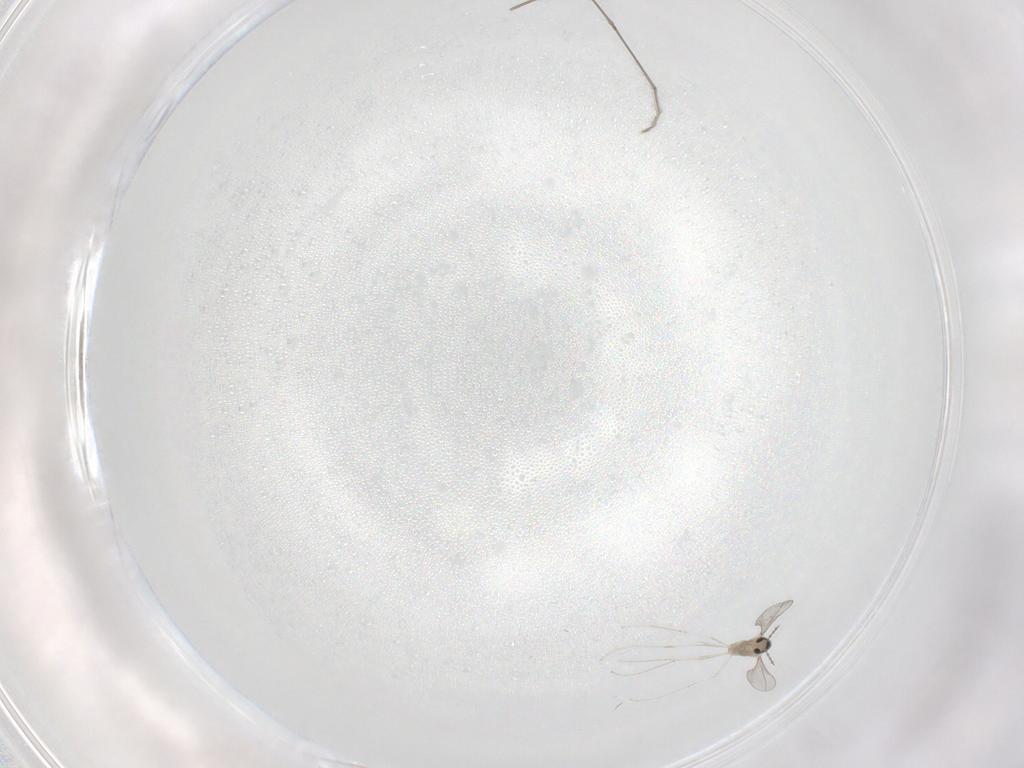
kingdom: Animalia
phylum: Arthropoda
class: Insecta
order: Diptera
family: Cecidomyiidae
